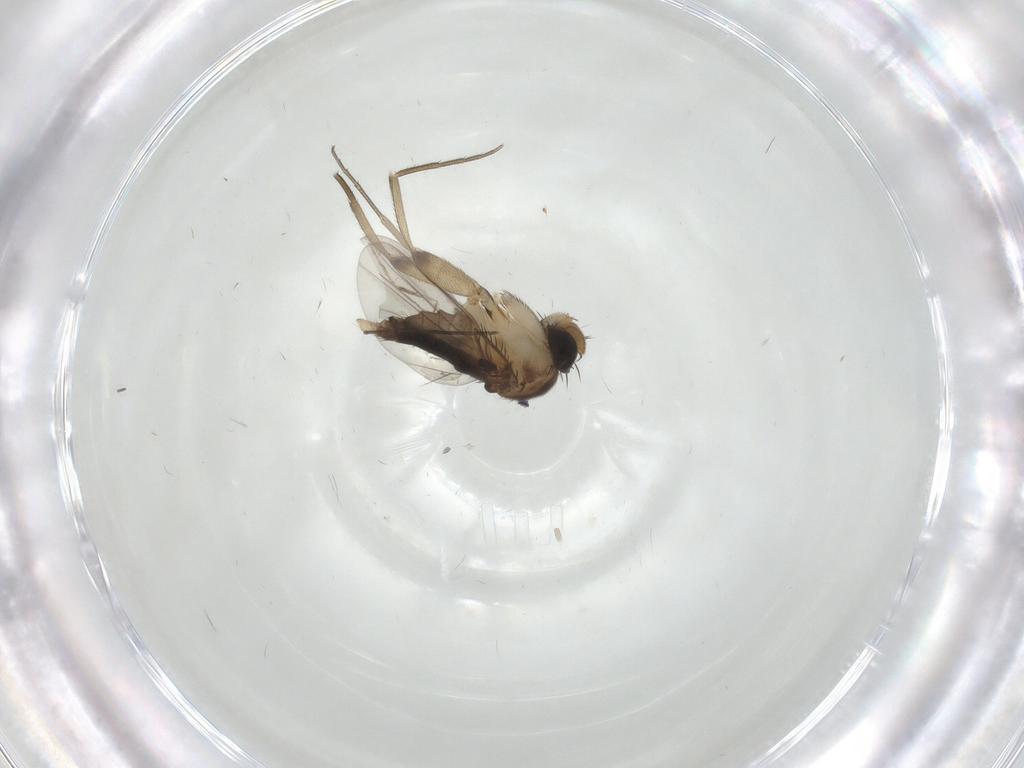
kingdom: Animalia
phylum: Arthropoda
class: Insecta
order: Diptera
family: Phoridae
